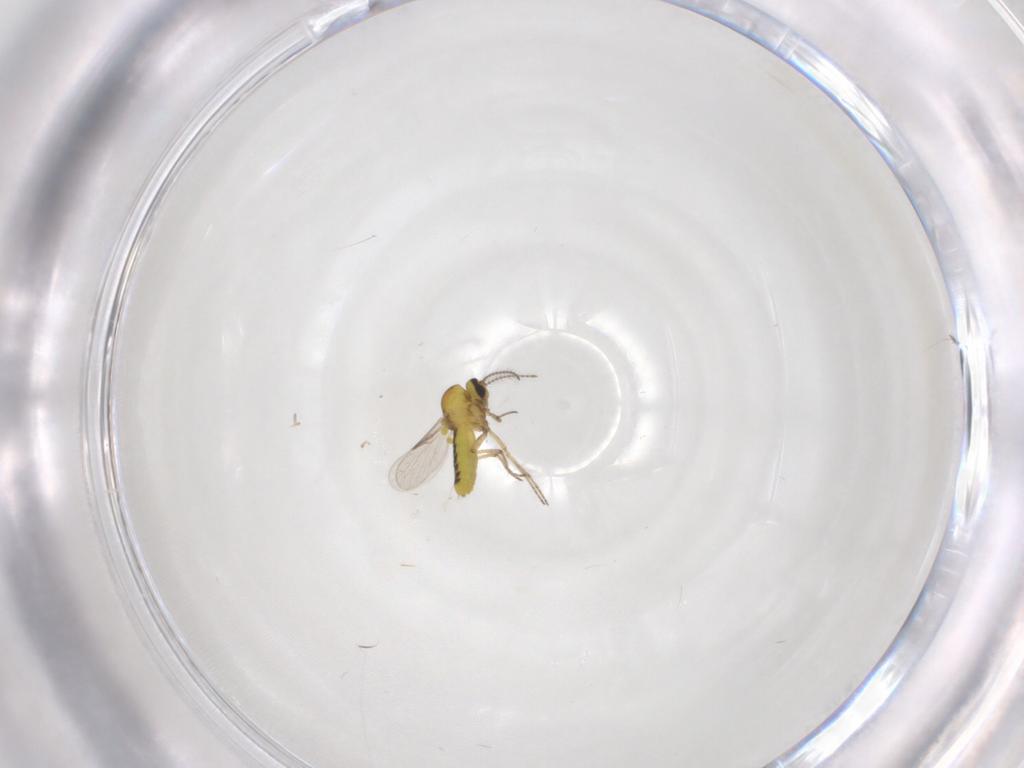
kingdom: Animalia
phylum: Arthropoda
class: Insecta
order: Diptera
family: Ceratopogonidae
